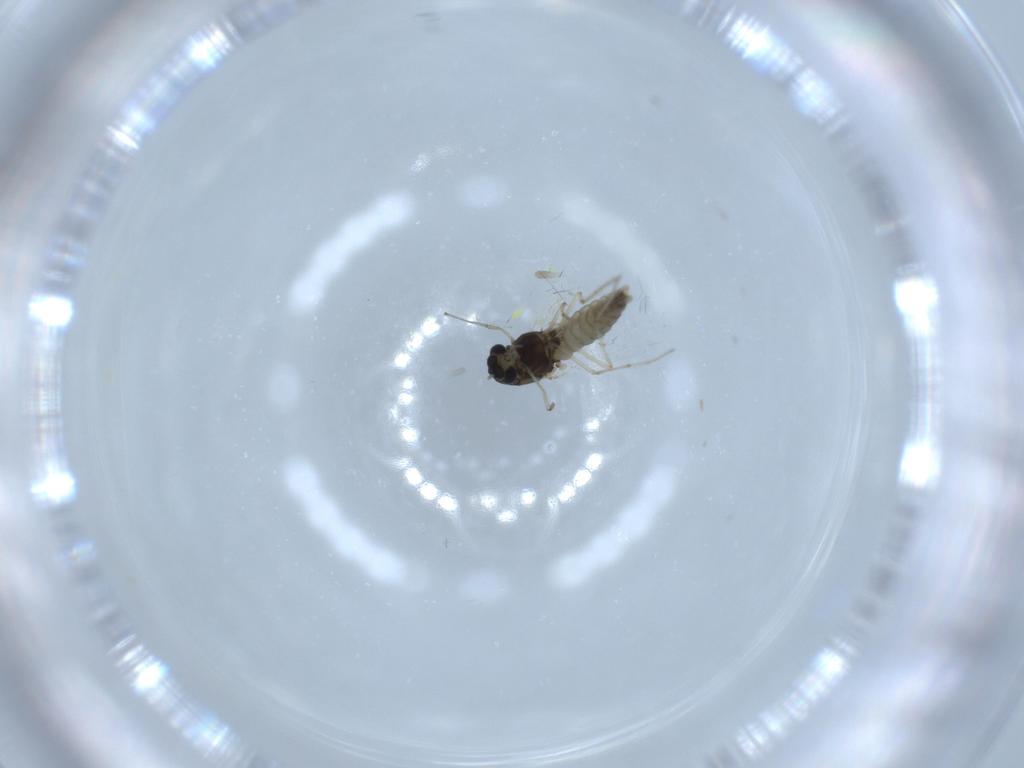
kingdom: Animalia
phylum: Arthropoda
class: Insecta
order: Diptera
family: Chironomidae
